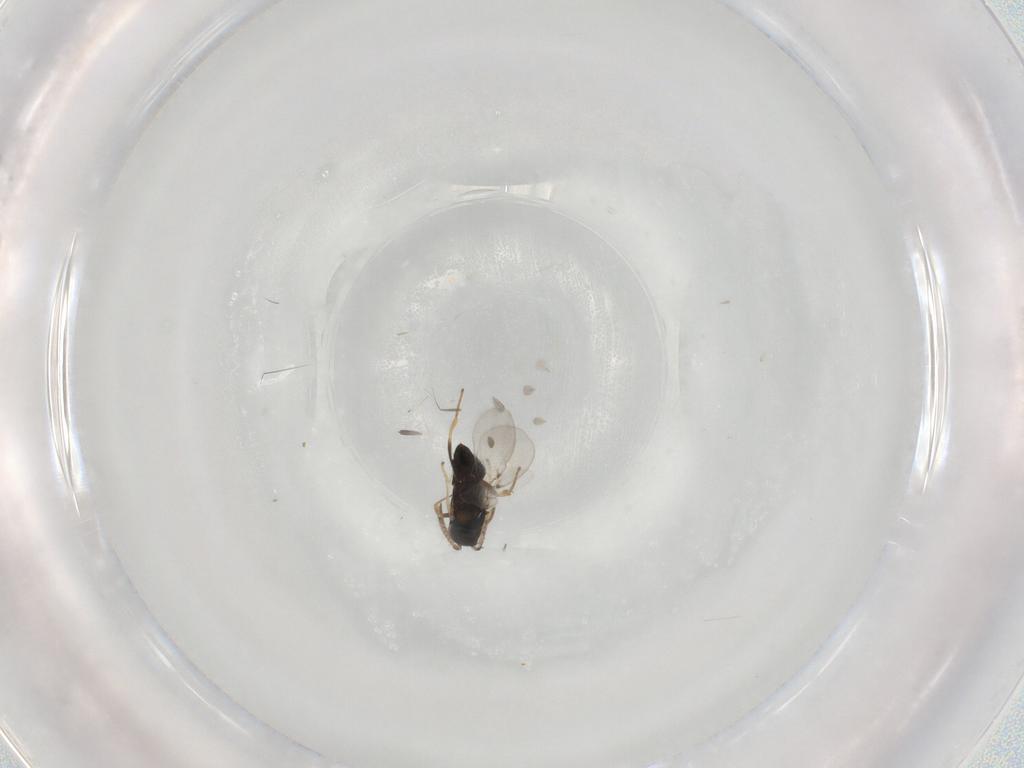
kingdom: Animalia
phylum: Arthropoda
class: Insecta
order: Hymenoptera
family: Encyrtidae
